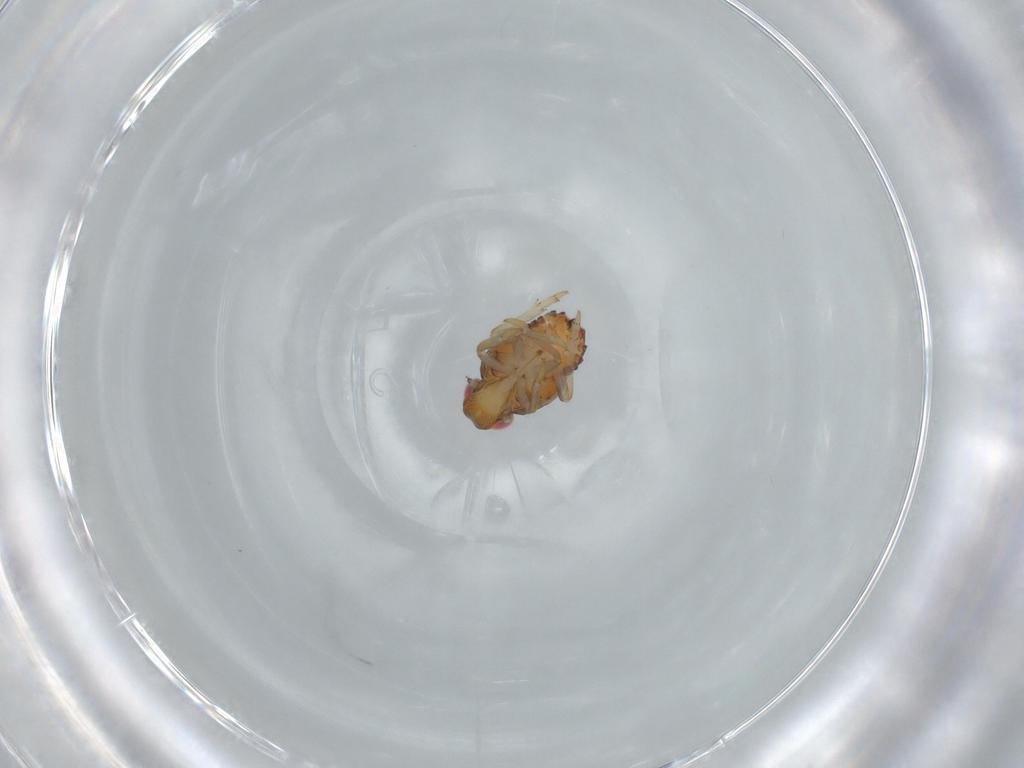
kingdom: Animalia
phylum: Arthropoda
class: Insecta
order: Hemiptera
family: Issidae
